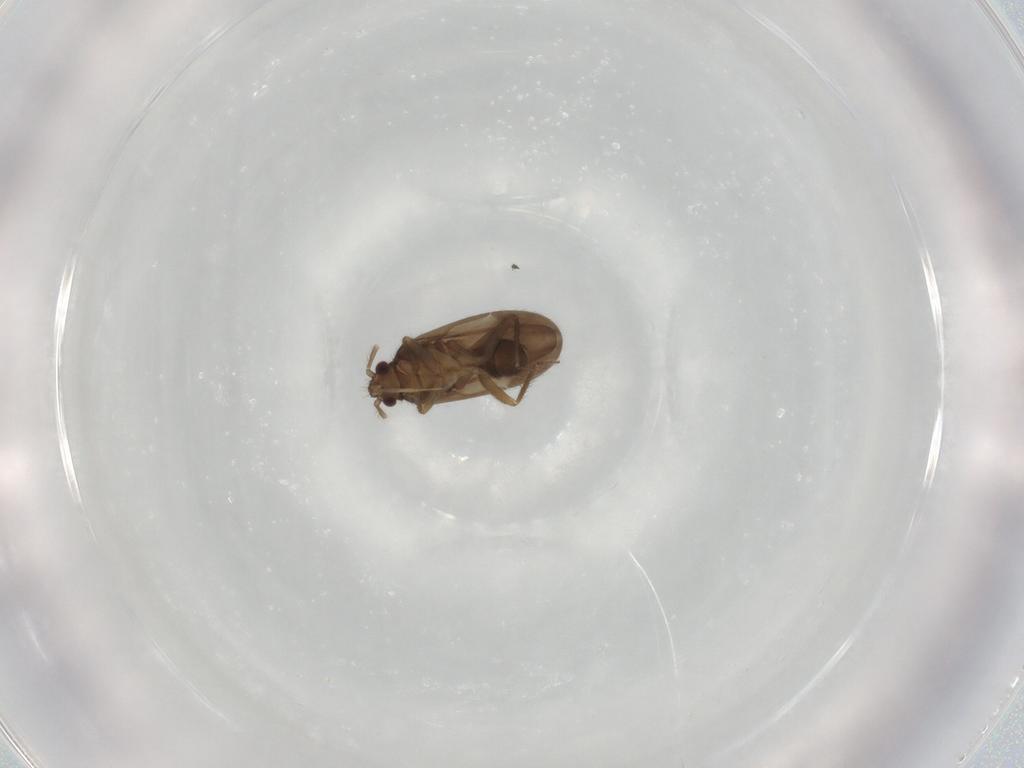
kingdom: Animalia
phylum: Arthropoda
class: Insecta
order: Hemiptera
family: Ceratocombidae
